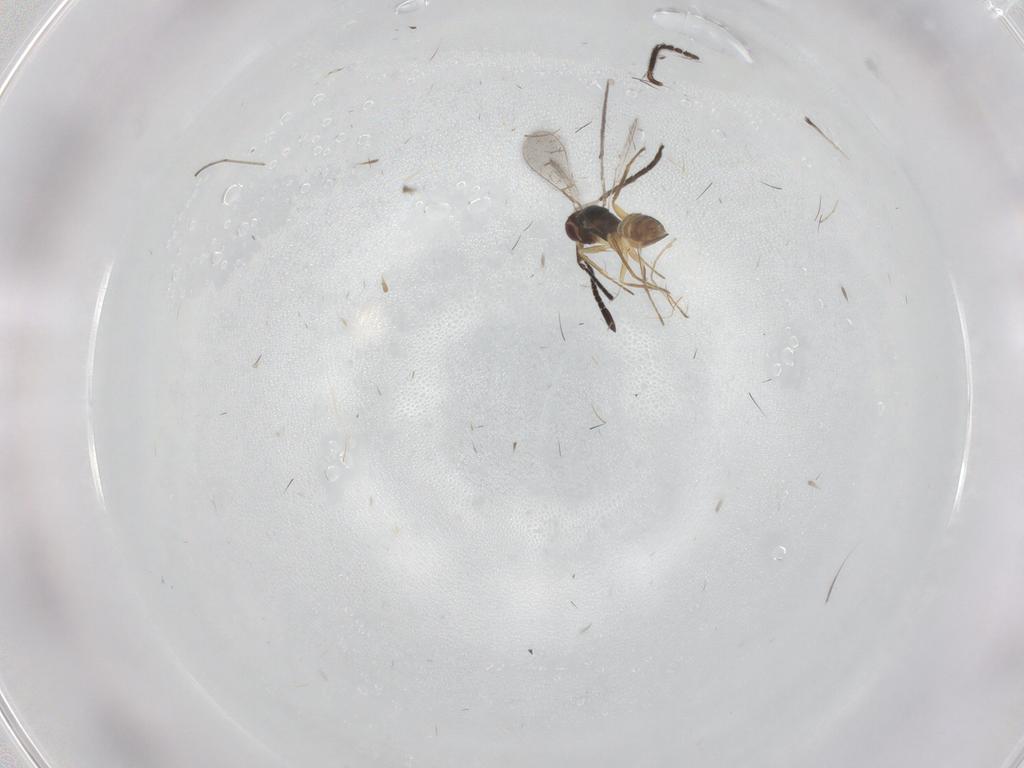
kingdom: Animalia
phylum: Arthropoda
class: Insecta
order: Hymenoptera
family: Bethylidae
